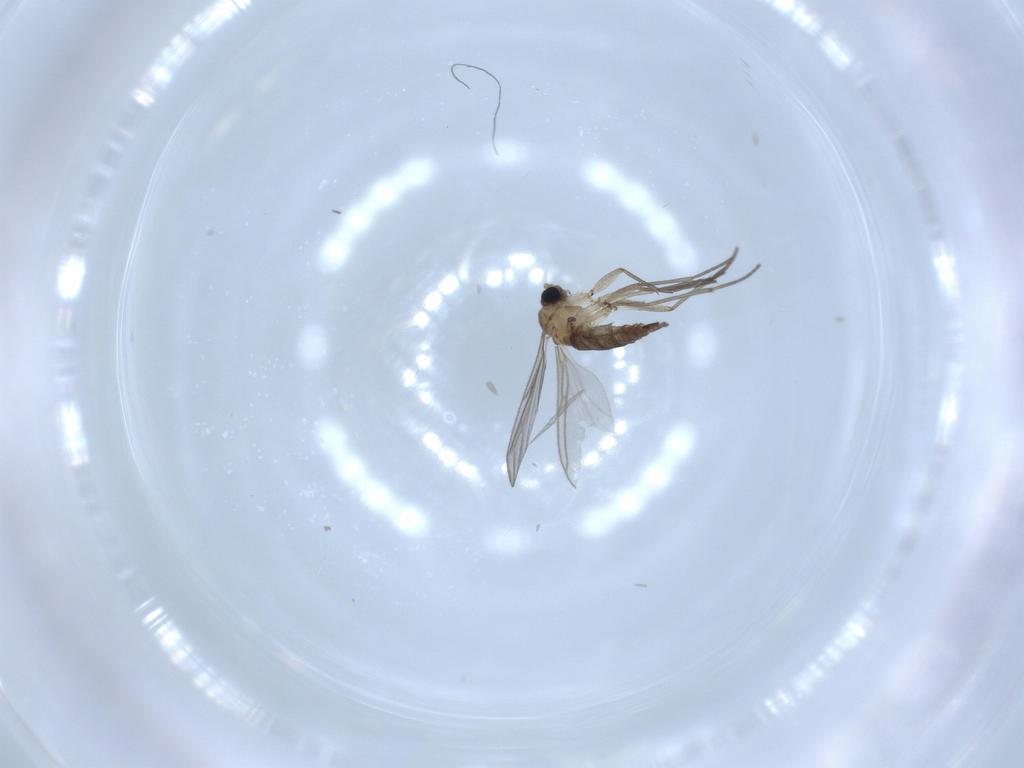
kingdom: Animalia
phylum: Arthropoda
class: Insecta
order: Diptera
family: Sciaridae
